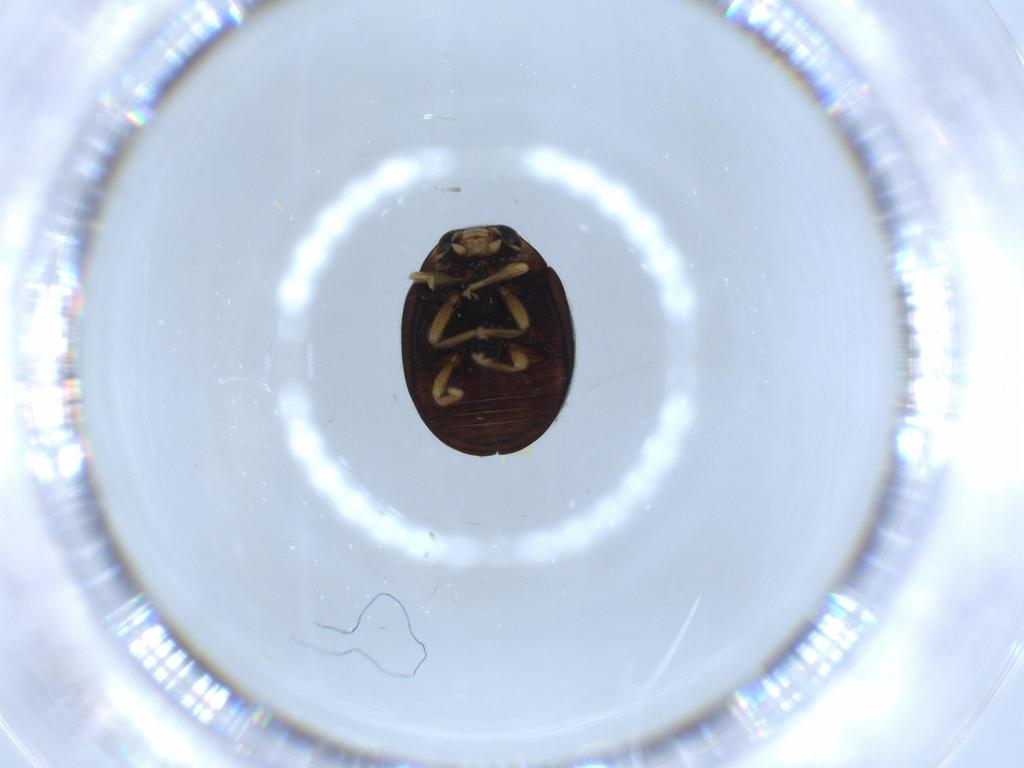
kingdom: Animalia
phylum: Arthropoda
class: Insecta
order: Coleoptera
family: Coccinellidae
